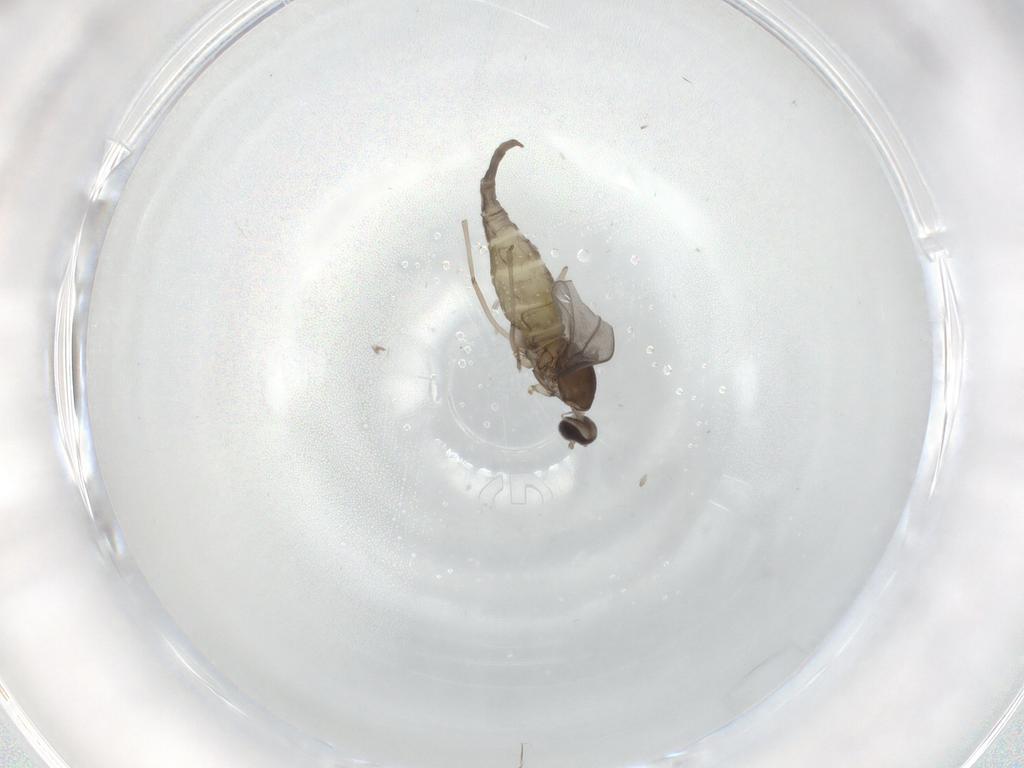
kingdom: Animalia
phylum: Arthropoda
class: Insecta
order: Diptera
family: Cecidomyiidae
